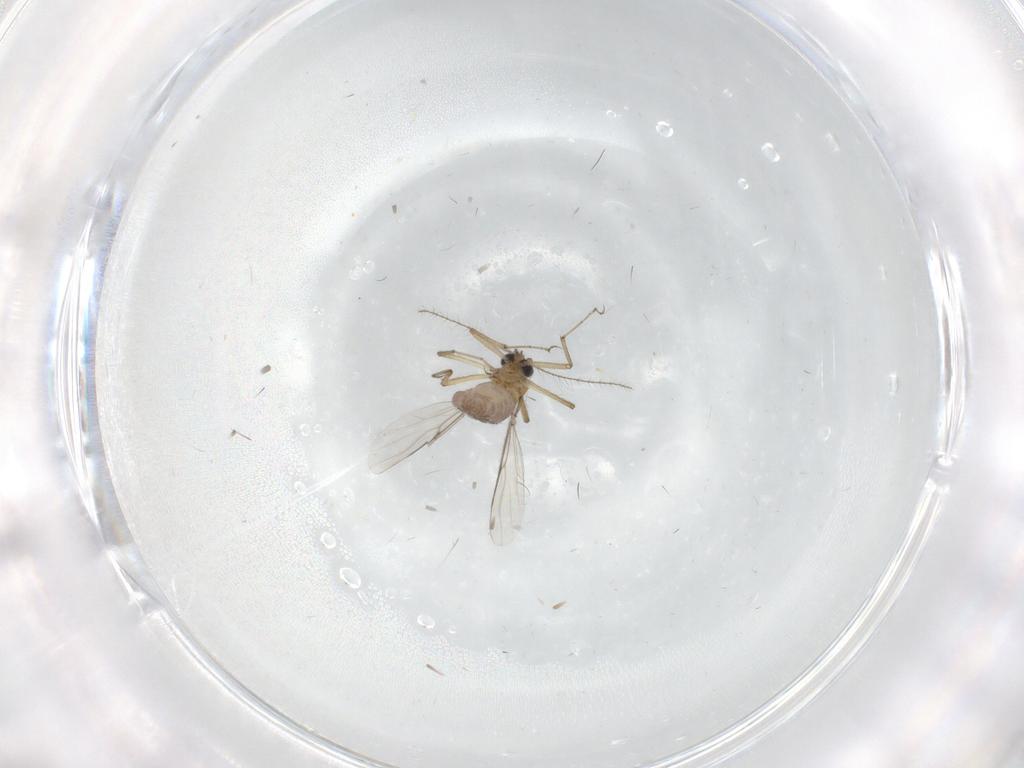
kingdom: Animalia
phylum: Arthropoda
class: Insecta
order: Diptera
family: Ceratopogonidae
